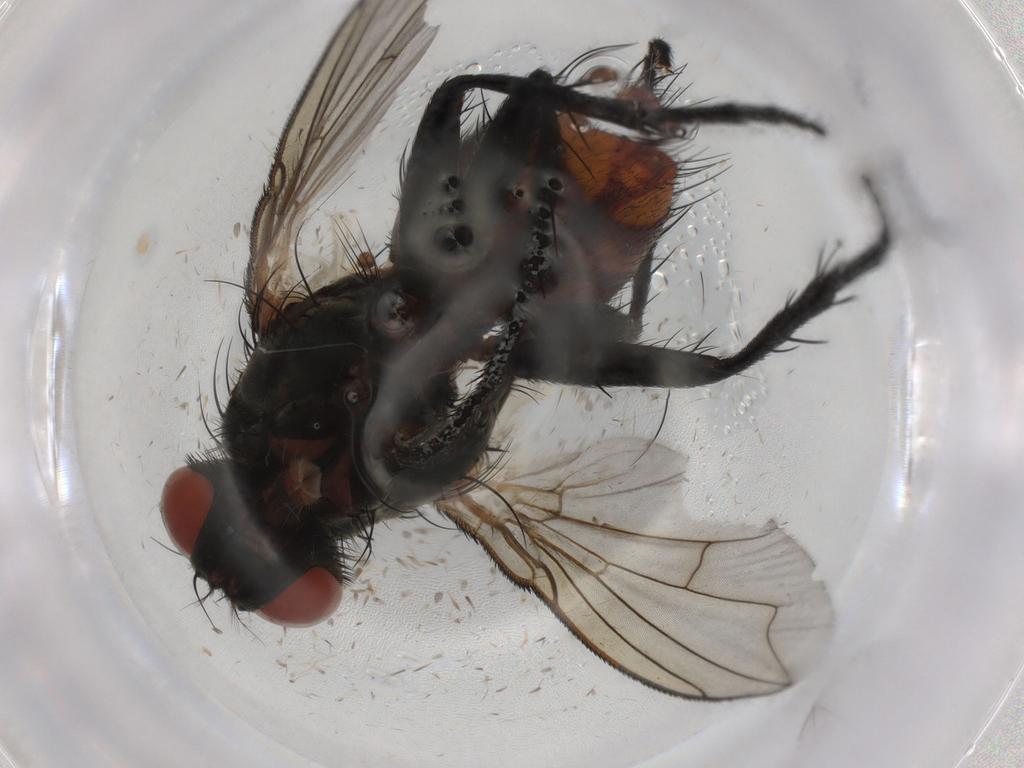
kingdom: Animalia
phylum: Arthropoda
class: Insecta
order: Diptera
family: Sarcophagidae
